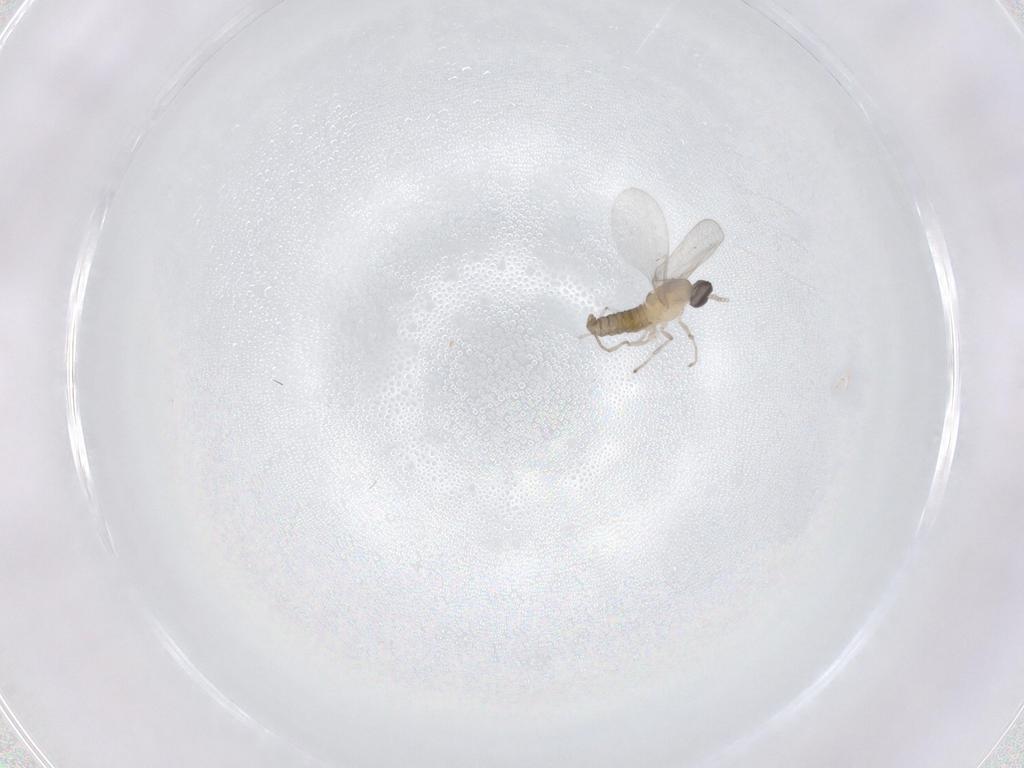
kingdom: Animalia
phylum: Arthropoda
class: Insecta
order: Diptera
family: Cecidomyiidae
